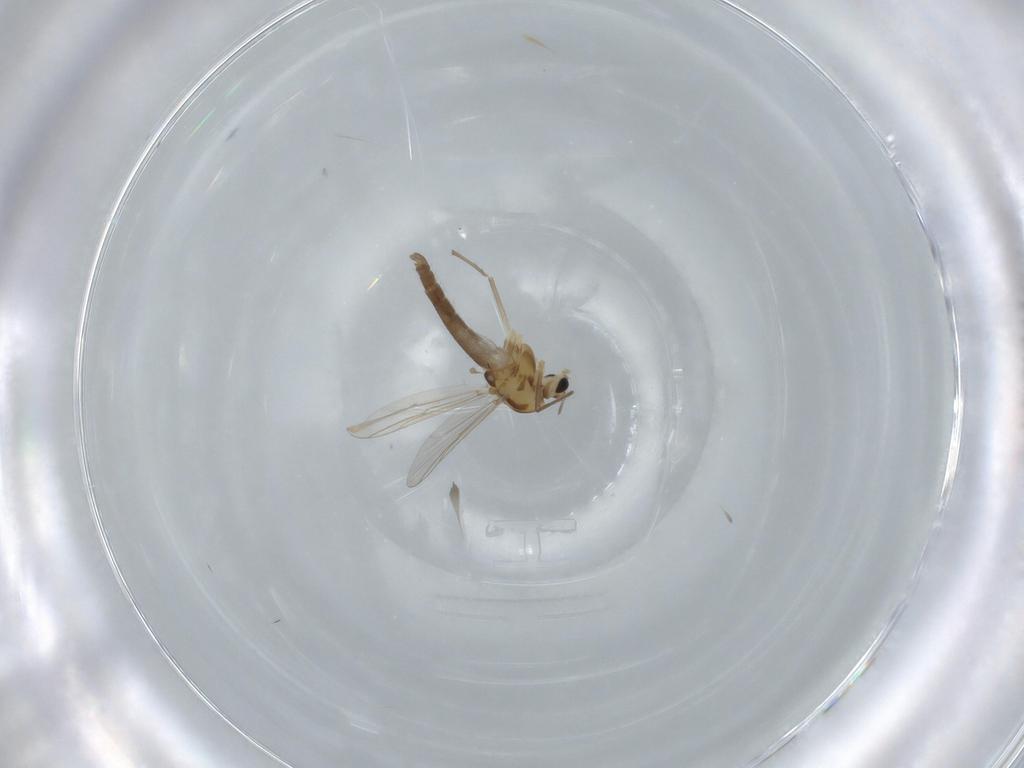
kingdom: Animalia
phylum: Arthropoda
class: Insecta
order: Diptera
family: Chironomidae
